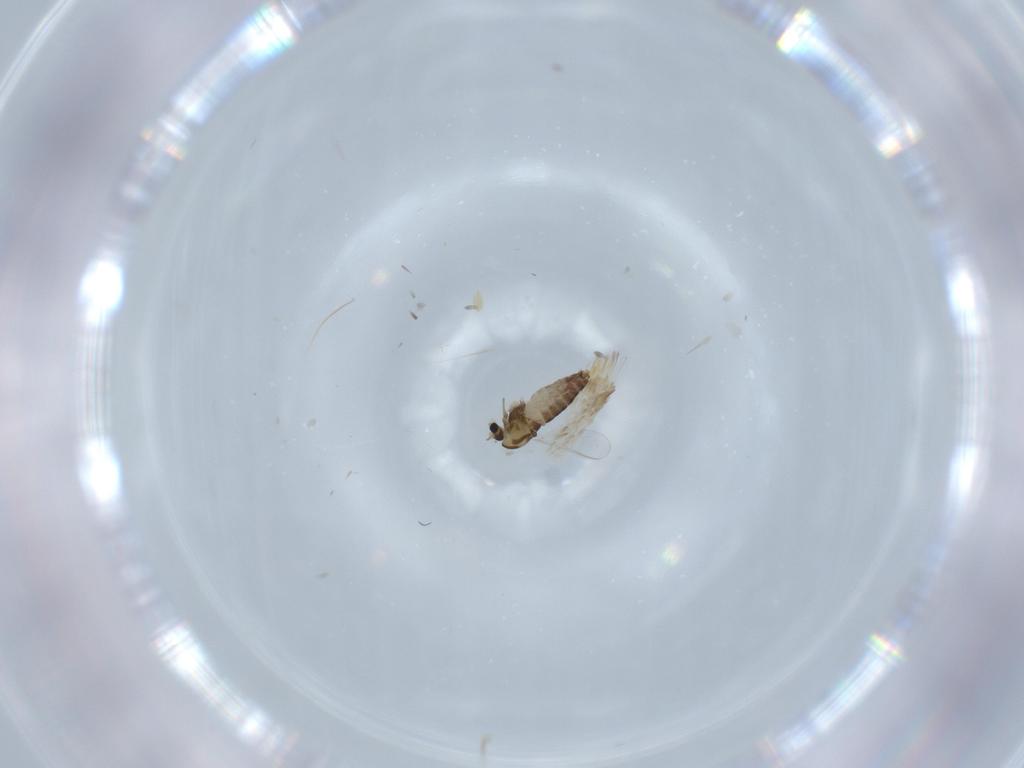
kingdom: Animalia
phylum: Arthropoda
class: Insecta
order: Diptera
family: Chironomidae
